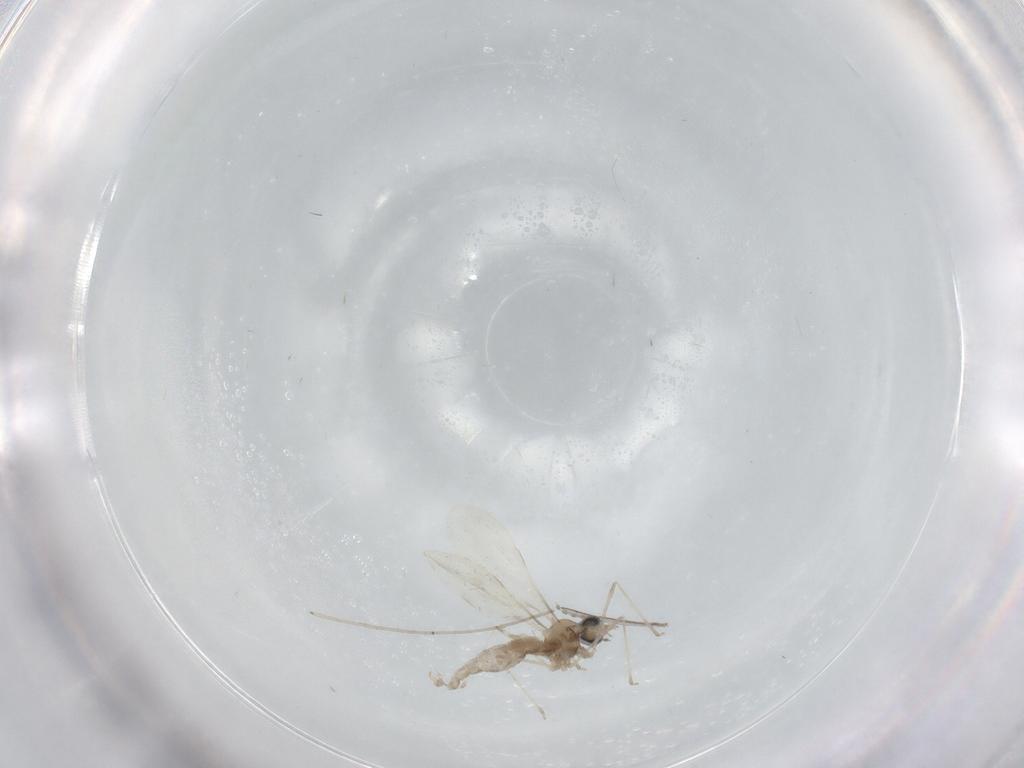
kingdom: Animalia
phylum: Arthropoda
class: Insecta
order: Diptera
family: Cecidomyiidae
